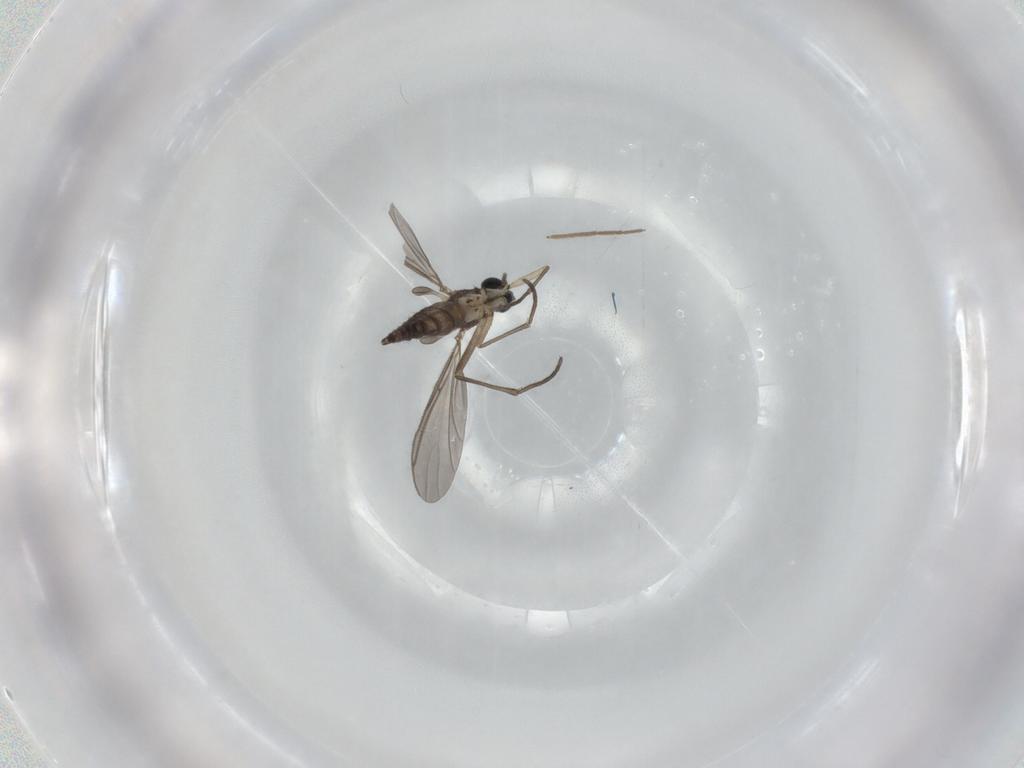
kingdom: Animalia
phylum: Arthropoda
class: Insecta
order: Diptera
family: Sciaridae
